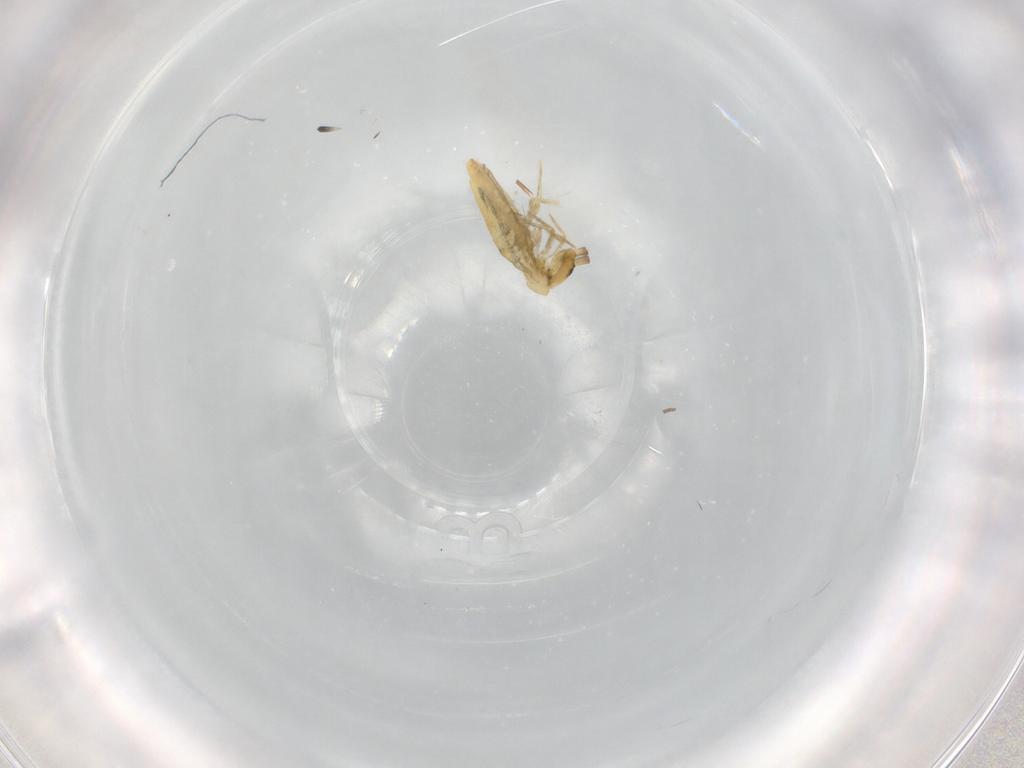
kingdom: Animalia
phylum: Arthropoda
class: Collembola
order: Entomobryomorpha
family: Entomobryidae
